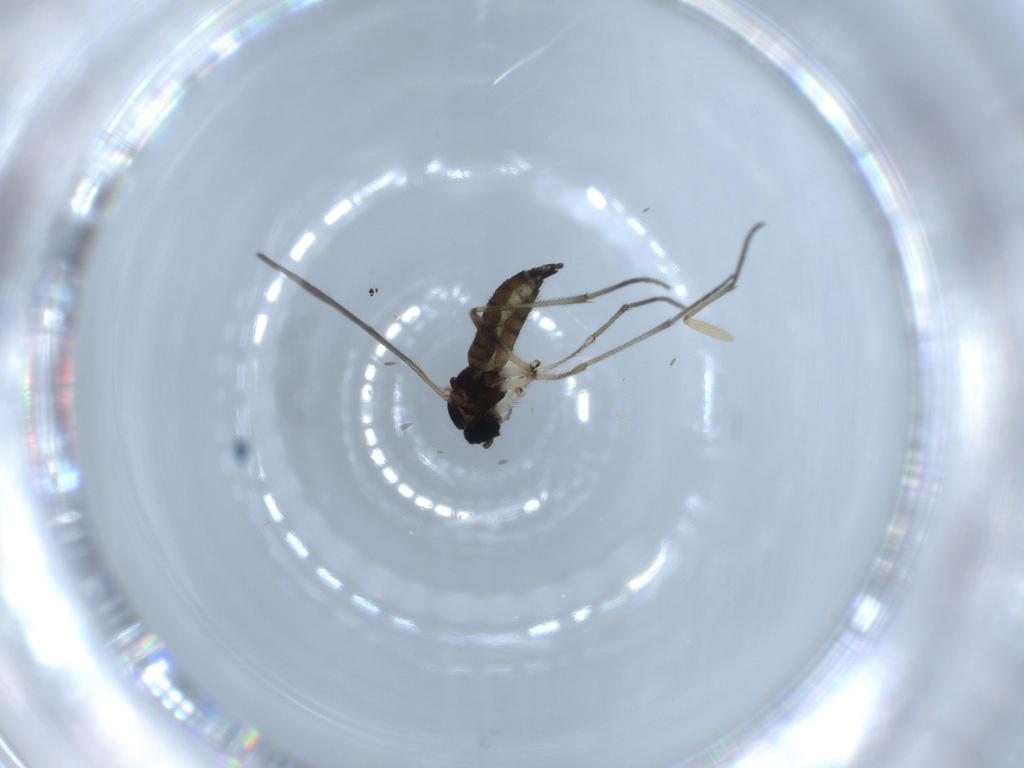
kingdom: Animalia
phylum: Arthropoda
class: Insecta
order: Diptera
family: Sciaridae
